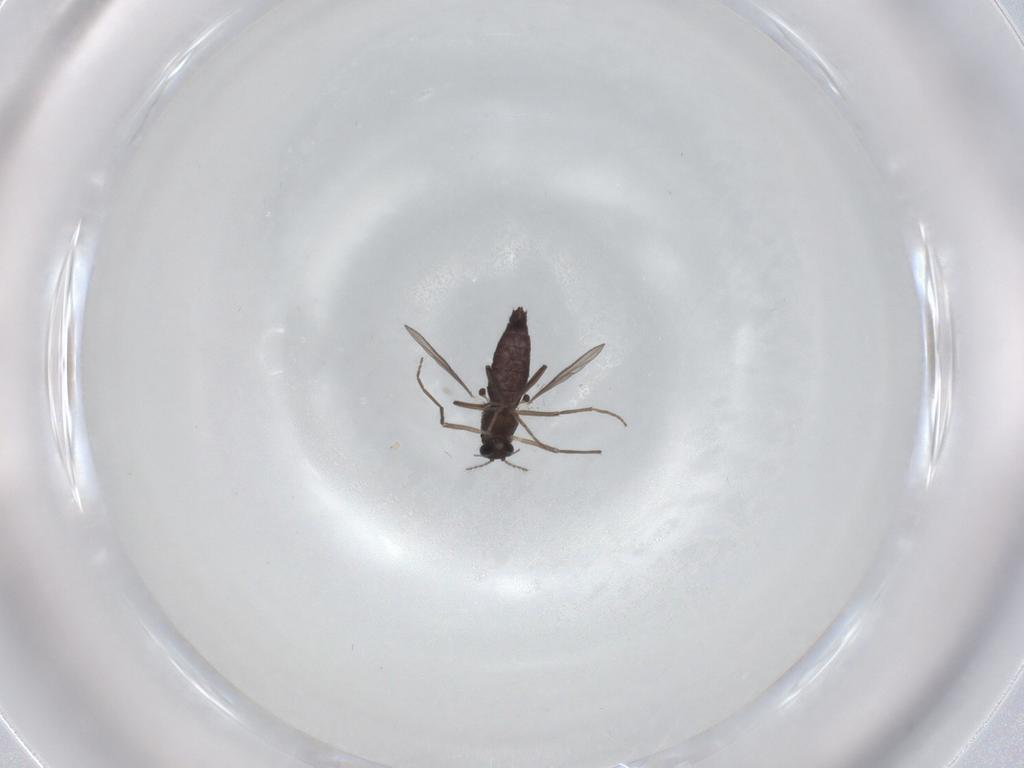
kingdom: Animalia
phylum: Arthropoda
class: Insecta
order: Diptera
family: Chironomidae
